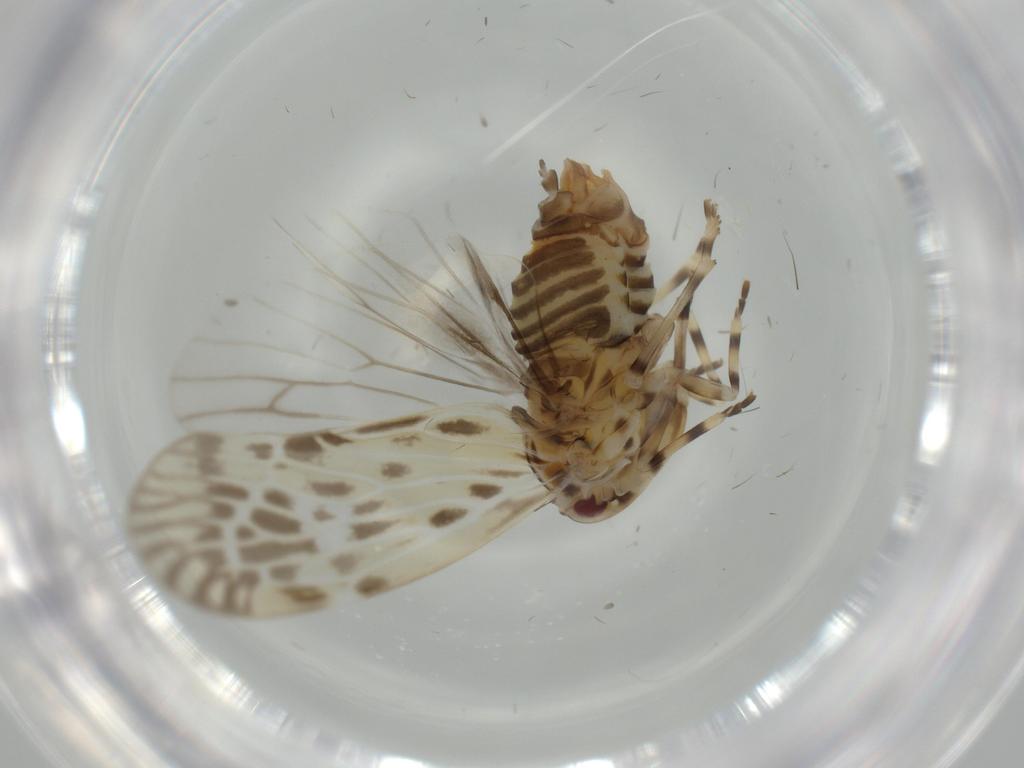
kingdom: Animalia
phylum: Arthropoda
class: Insecta
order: Hemiptera
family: Derbidae
